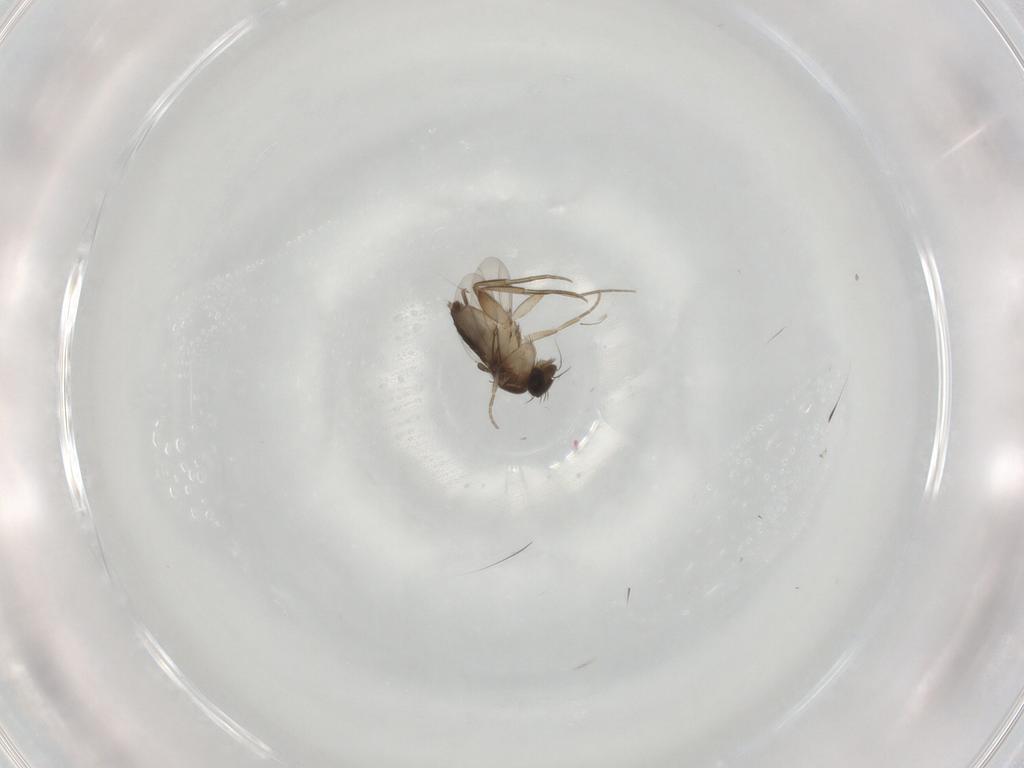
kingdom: Animalia
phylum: Arthropoda
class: Insecta
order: Diptera
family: Phoridae
